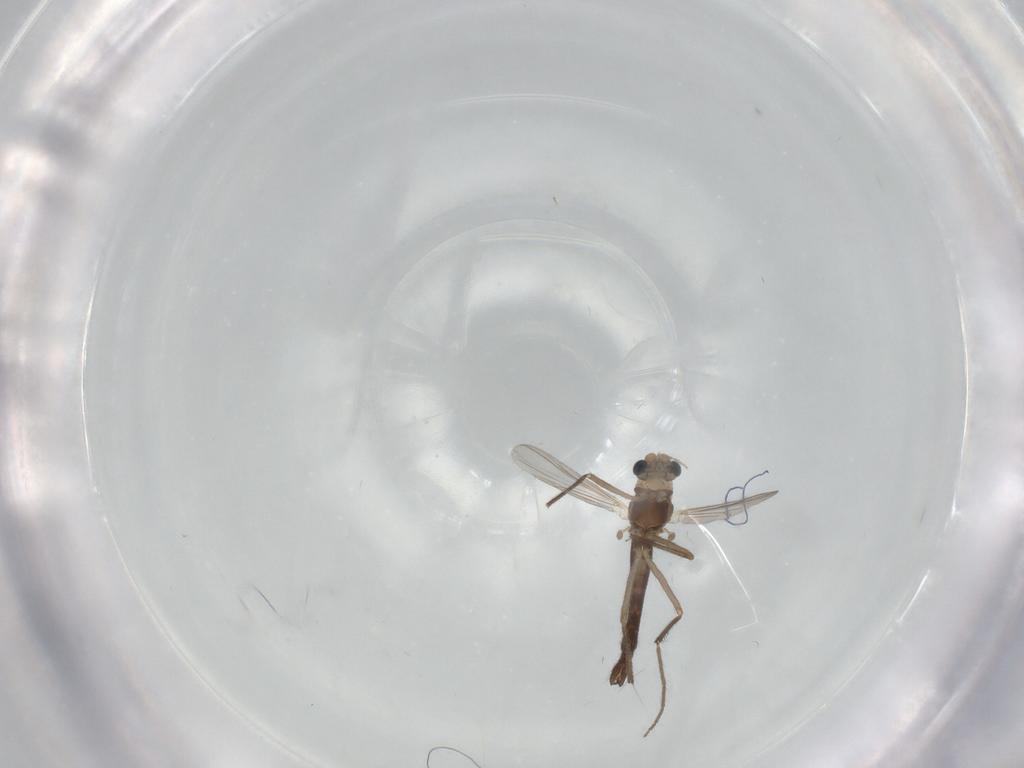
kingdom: Animalia
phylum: Arthropoda
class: Insecta
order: Diptera
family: Chironomidae
